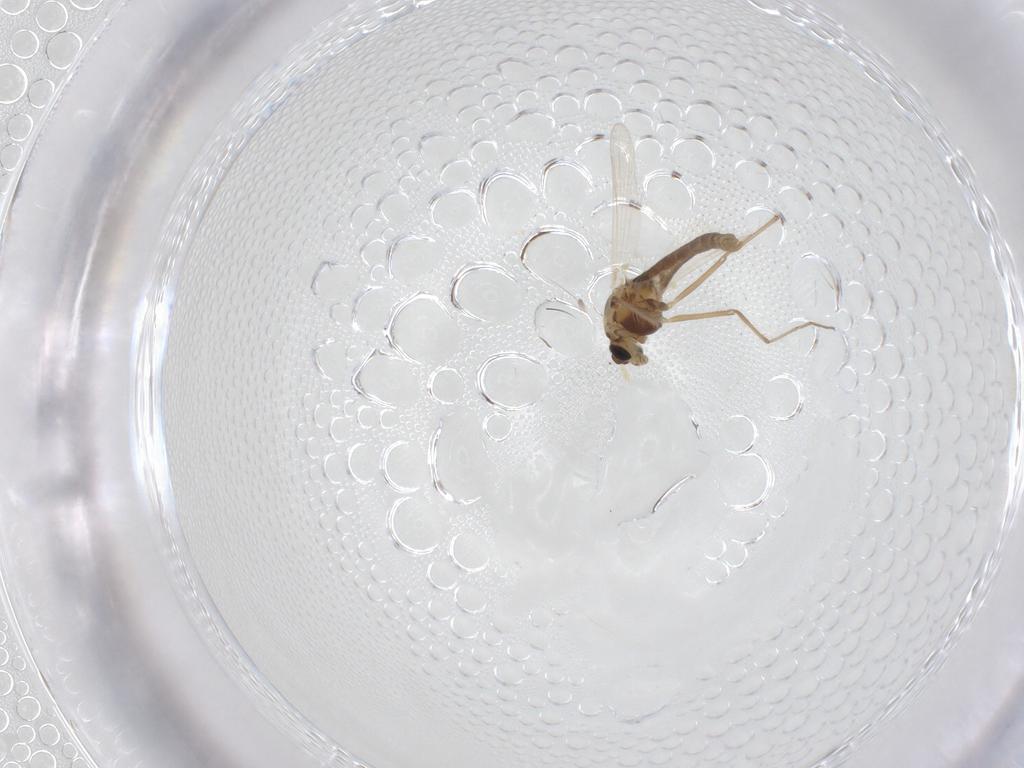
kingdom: Animalia
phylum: Arthropoda
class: Insecta
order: Diptera
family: Chironomidae
